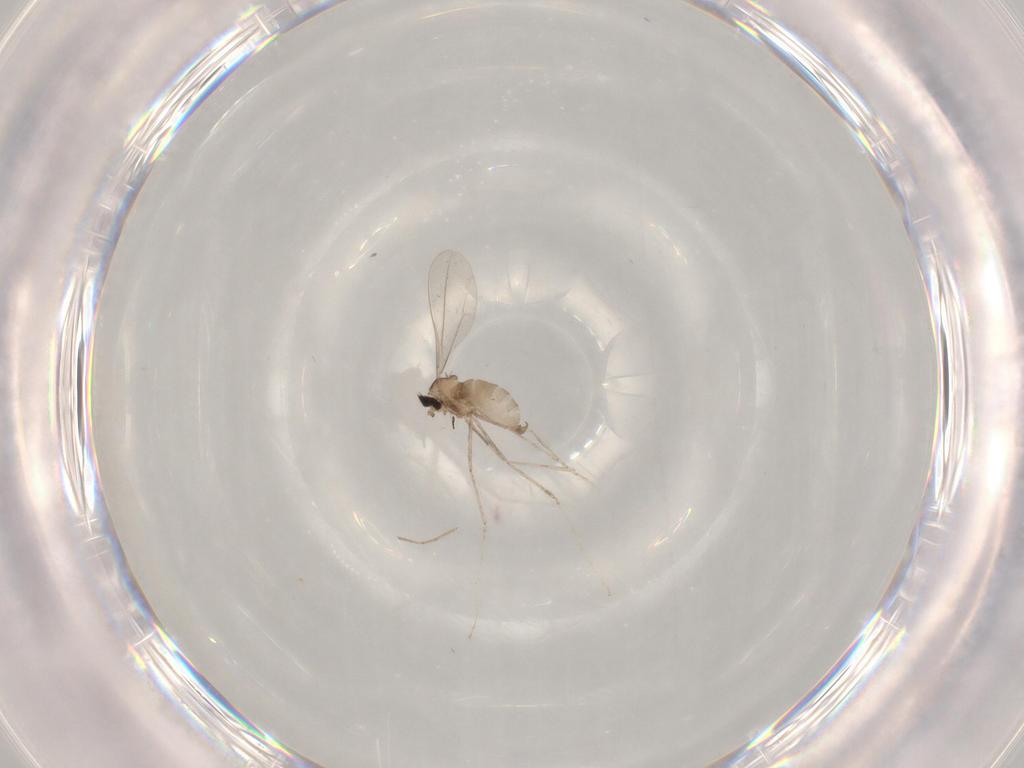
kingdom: Animalia
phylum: Arthropoda
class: Insecta
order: Diptera
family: Cecidomyiidae
